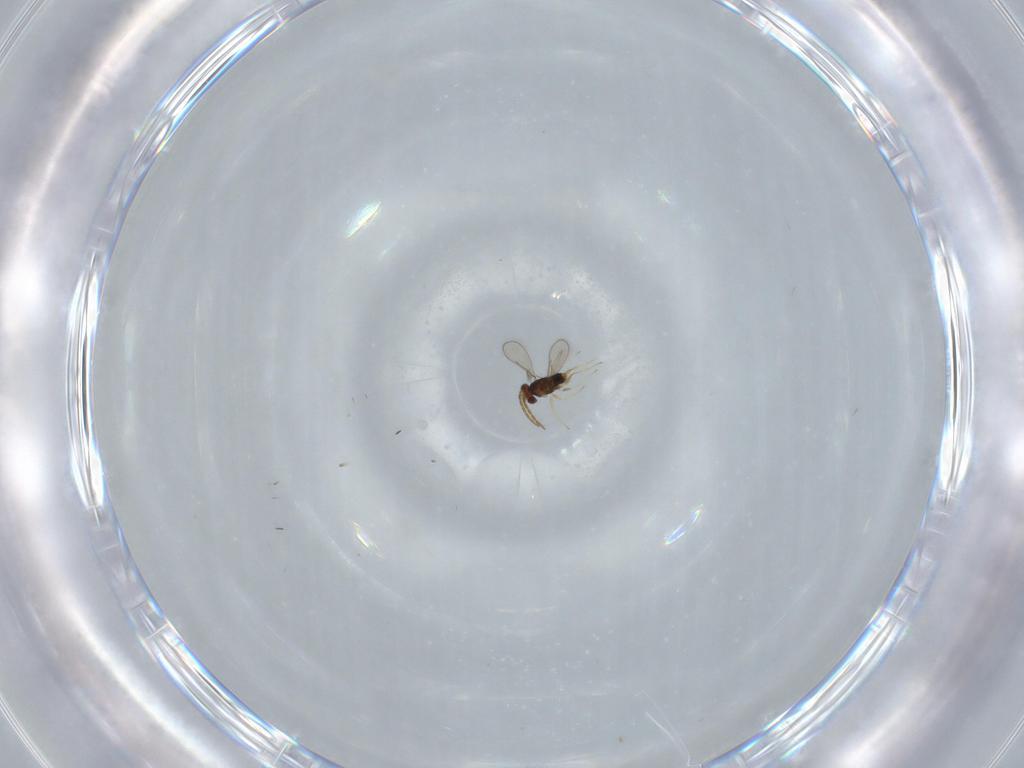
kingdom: Animalia
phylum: Arthropoda
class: Insecta
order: Hymenoptera
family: Aphelinidae
